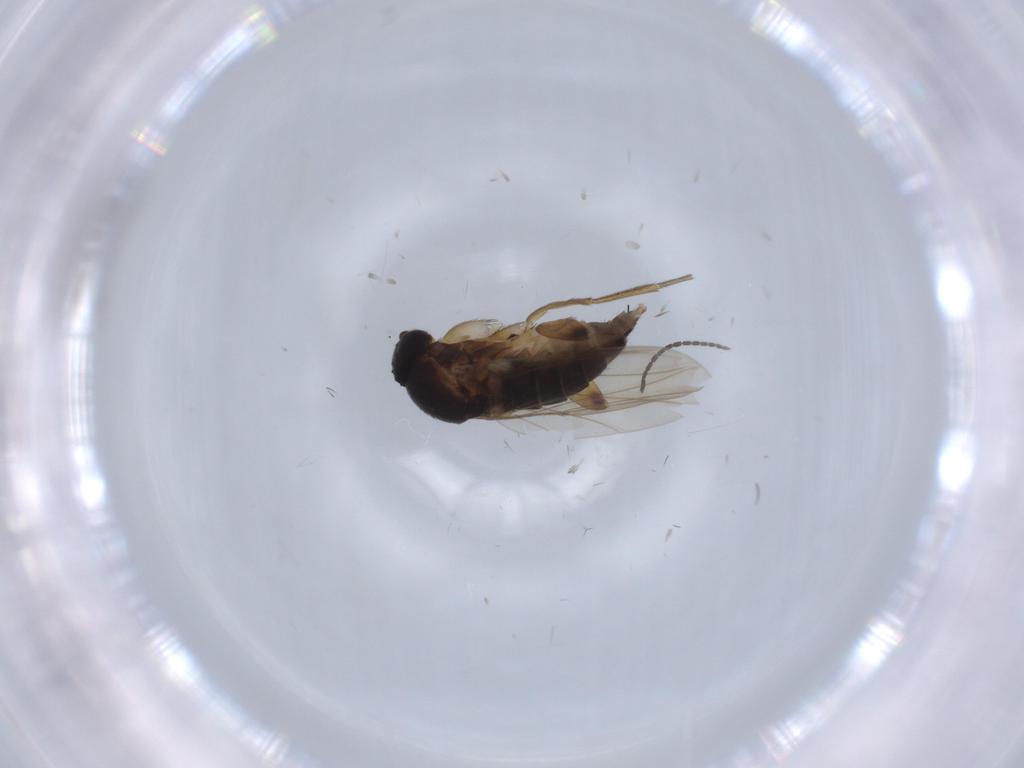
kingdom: Animalia
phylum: Arthropoda
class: Insecta
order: Diptera
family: Sciaridae
